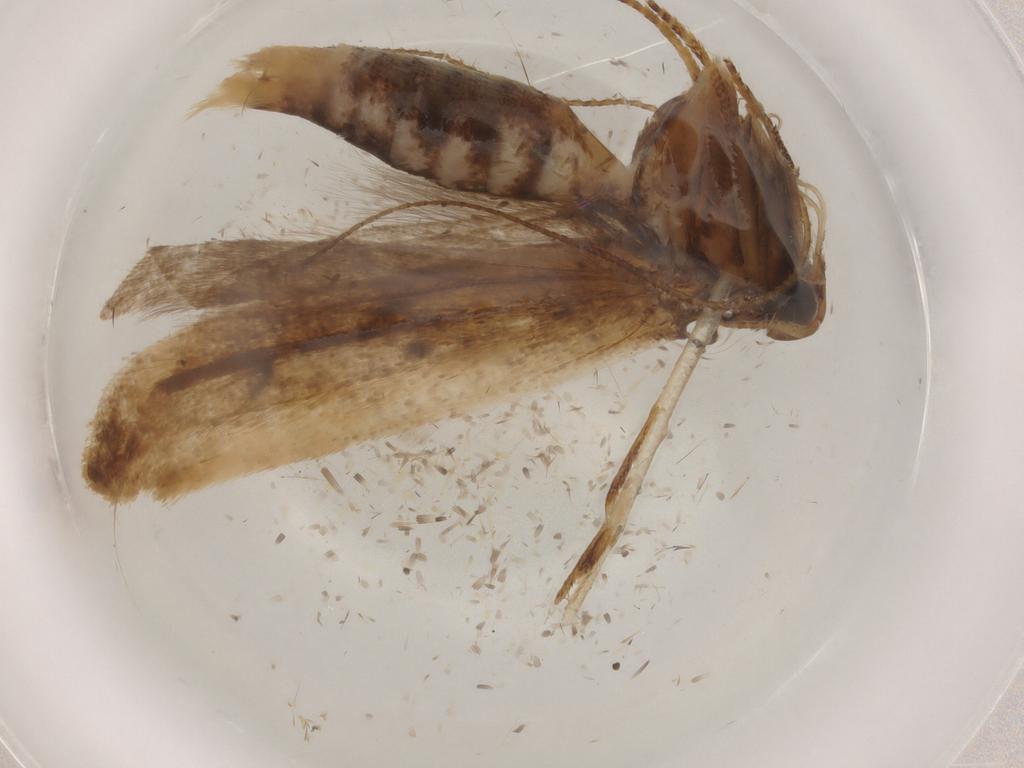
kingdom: Animalia
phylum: Arthropoda
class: Insecta
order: Lepidoptera
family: Gelechiidae
